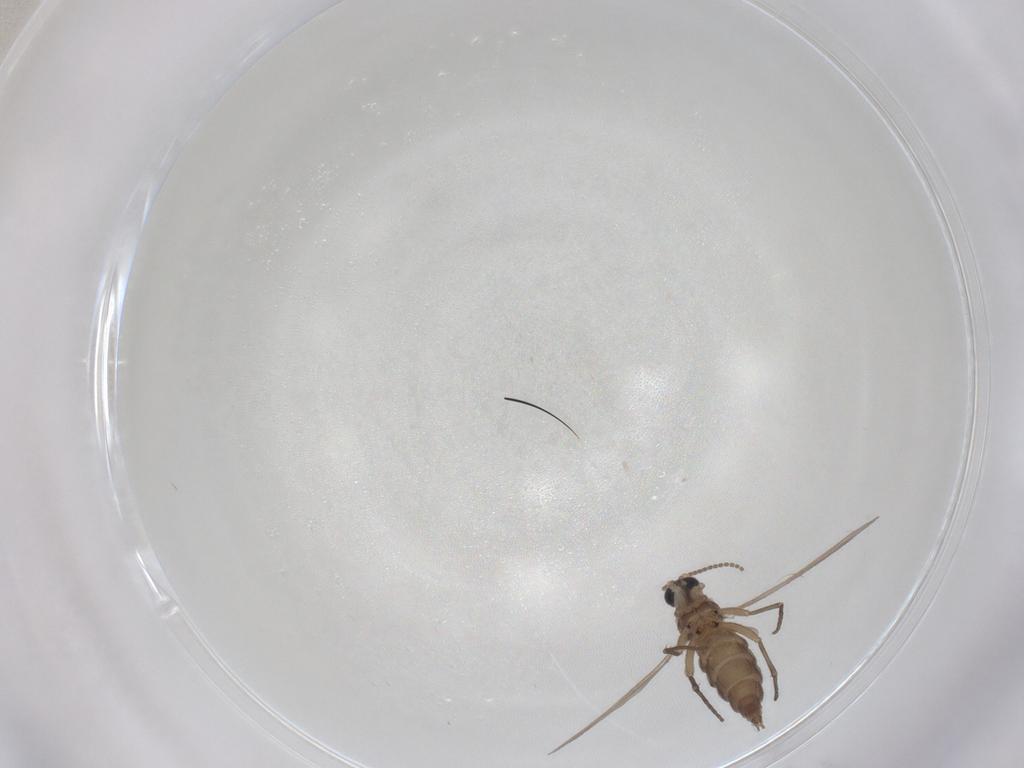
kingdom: Animalia
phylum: Arthropoda
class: Insecta
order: Diptera
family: Sciaridae
